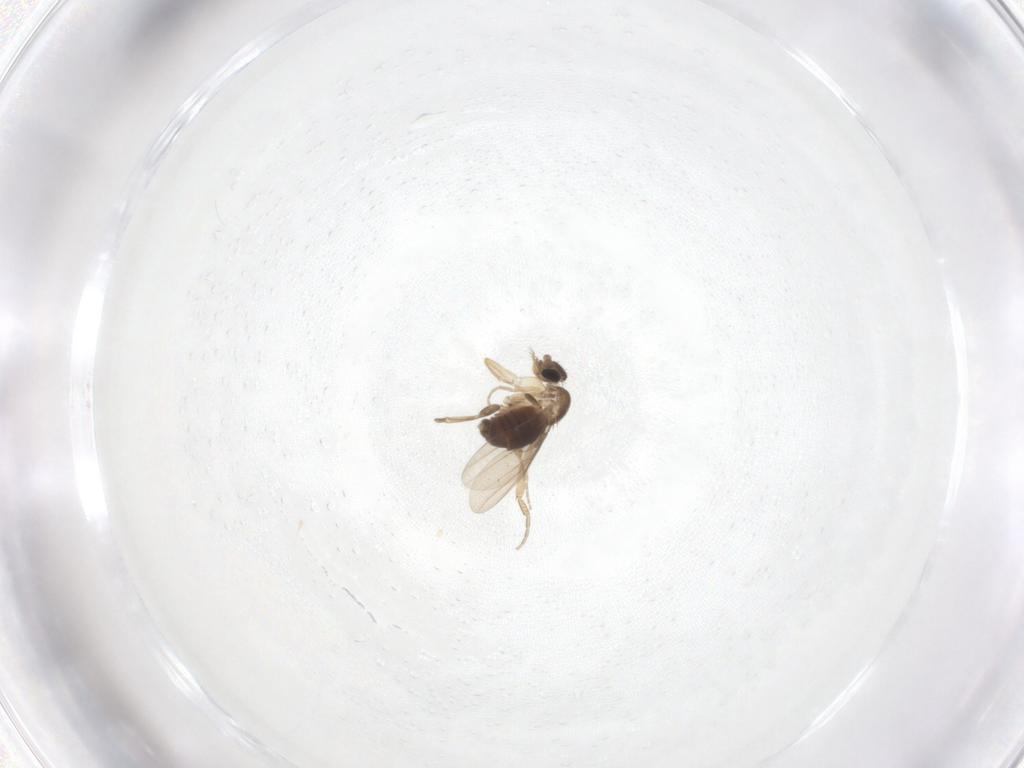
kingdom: Animalia
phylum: Arthropoda
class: Insecta
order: Diptera
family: Phoridae
